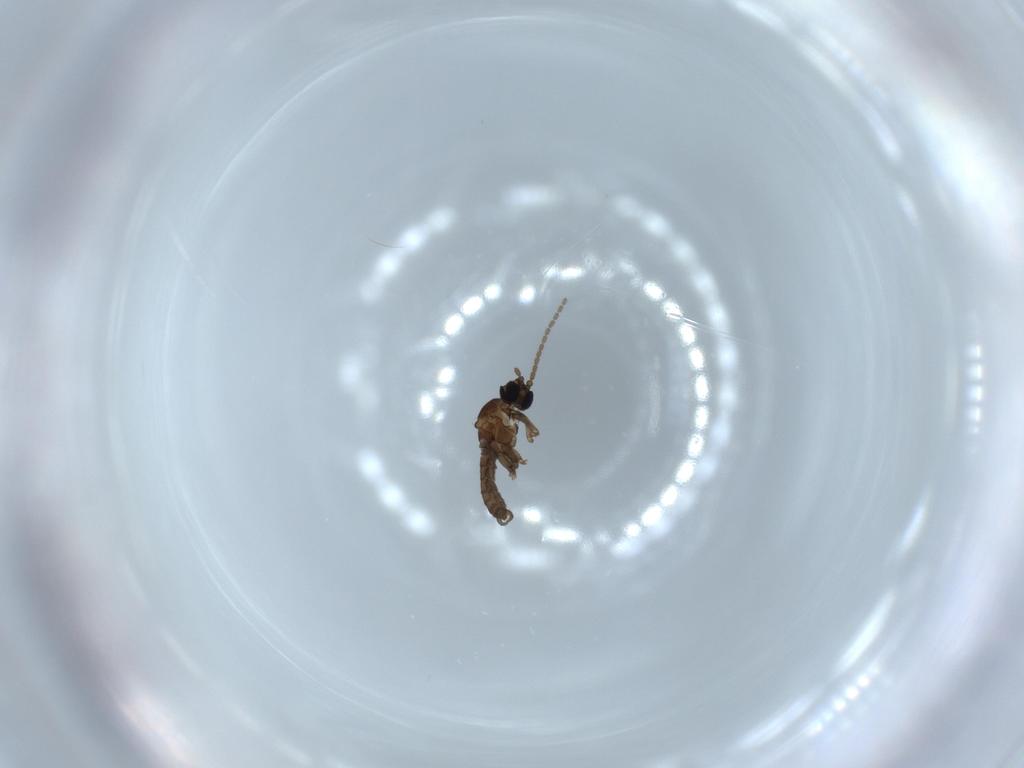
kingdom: Animalia
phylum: Arthropoda
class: Insecta
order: Diptera
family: Sciaridae
